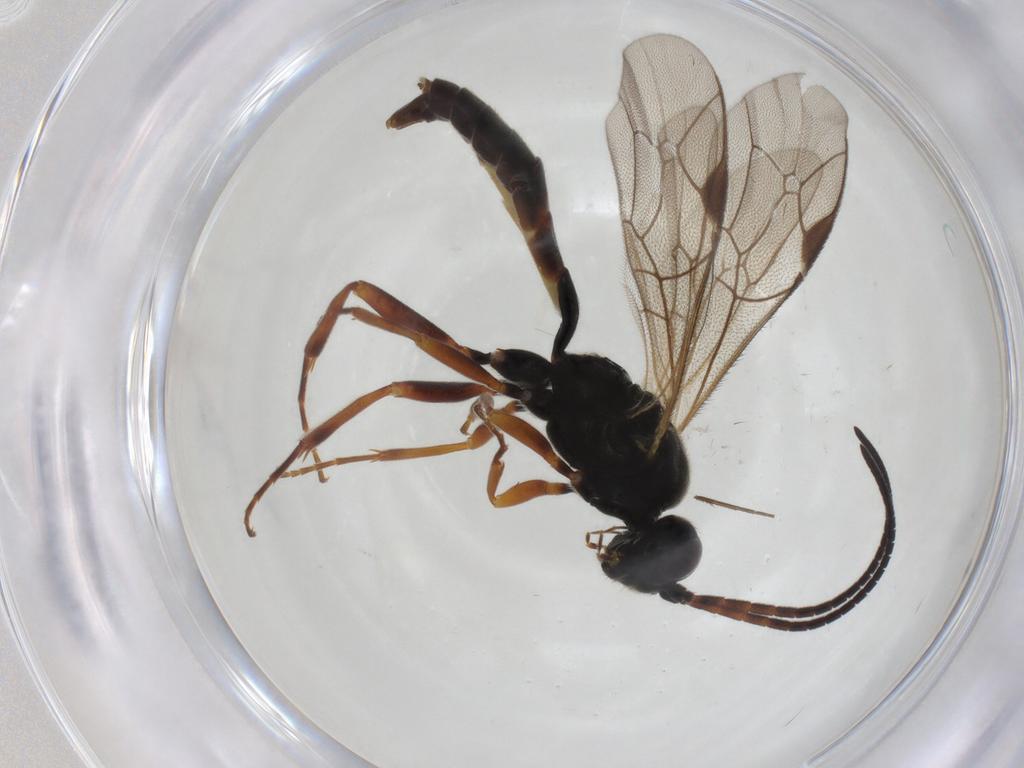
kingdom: Animalia
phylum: Arthropoda
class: Insecta
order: Hymenoptera
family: Ichneumonidae
